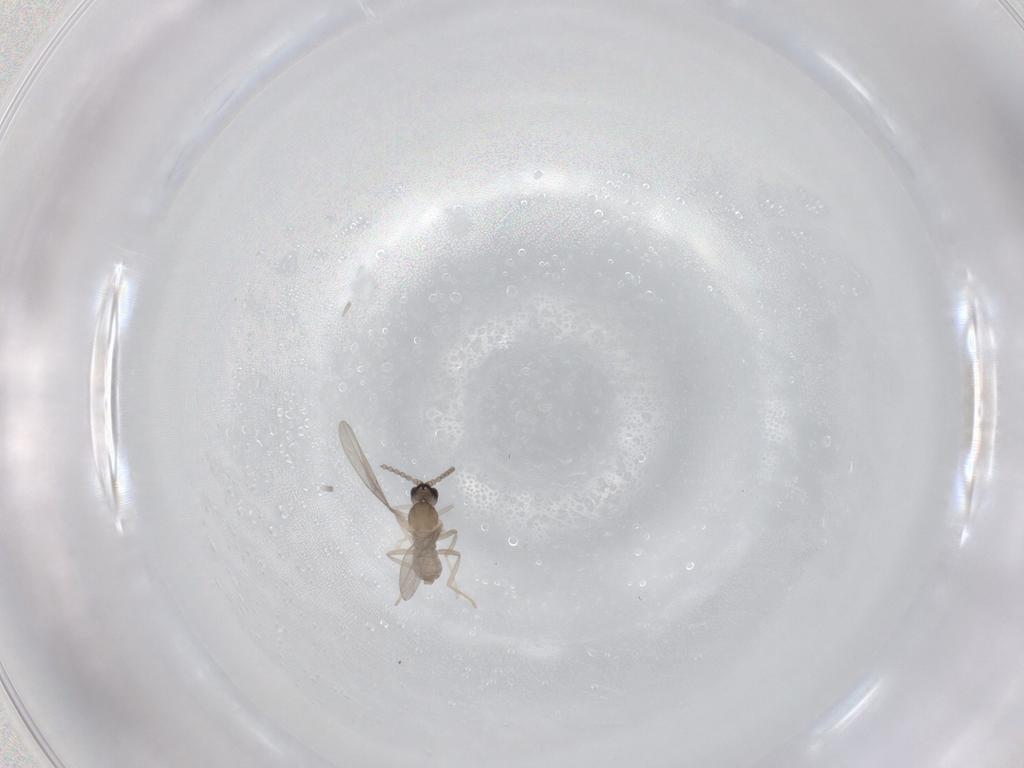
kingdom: Animalia
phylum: Arthropoda
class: Insecta
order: Diptera
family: Cecidomyiidae
